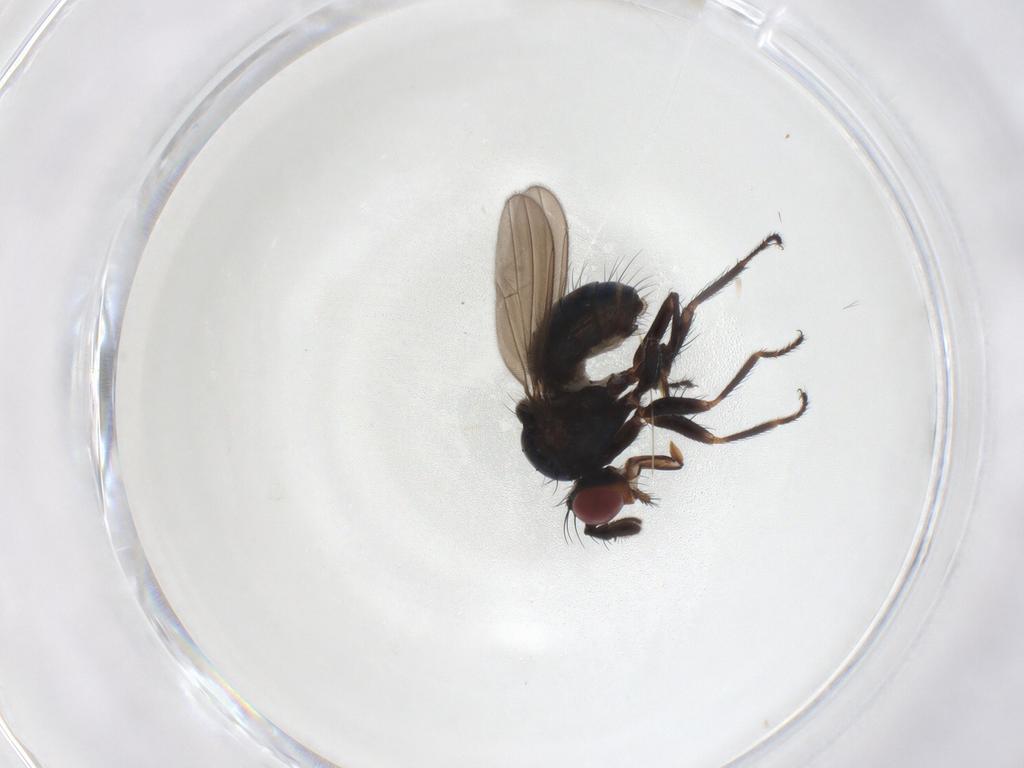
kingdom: Animalia
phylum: Arthropoda
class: Insecta
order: Diptera
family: Ephydridae
